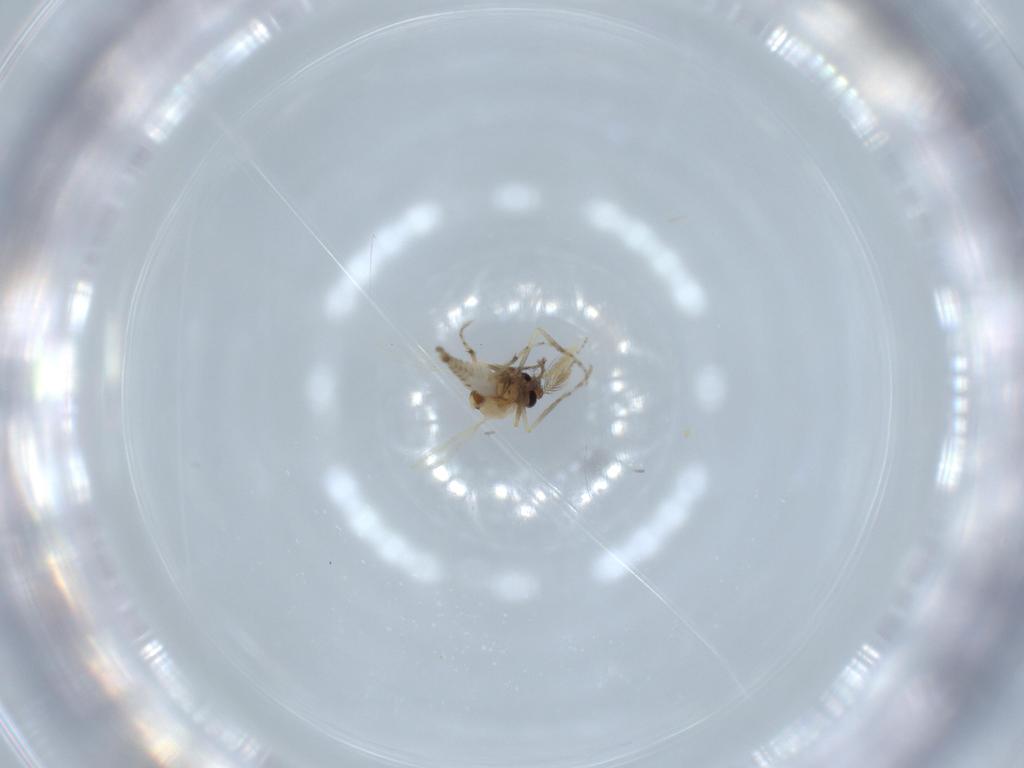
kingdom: Animalia
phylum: Arthropoda
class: Insecta
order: Diptera
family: Ceratopogonidae
